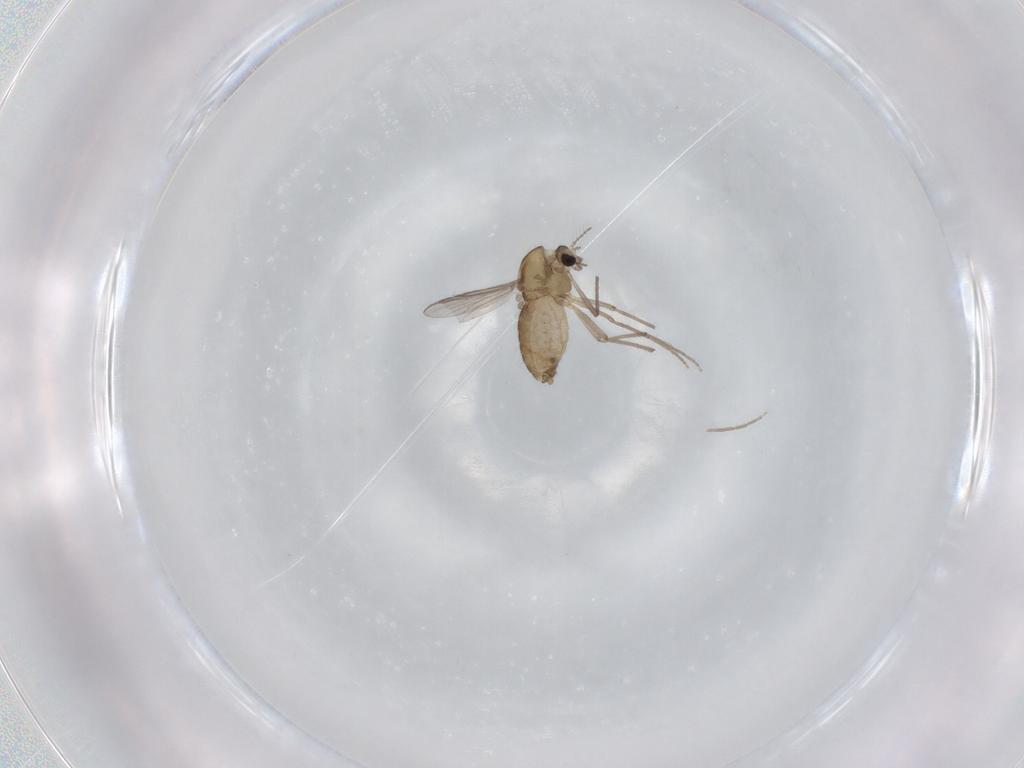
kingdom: Animalia
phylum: Arthropoda
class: Insecta
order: Diptera
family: Chironomidae
